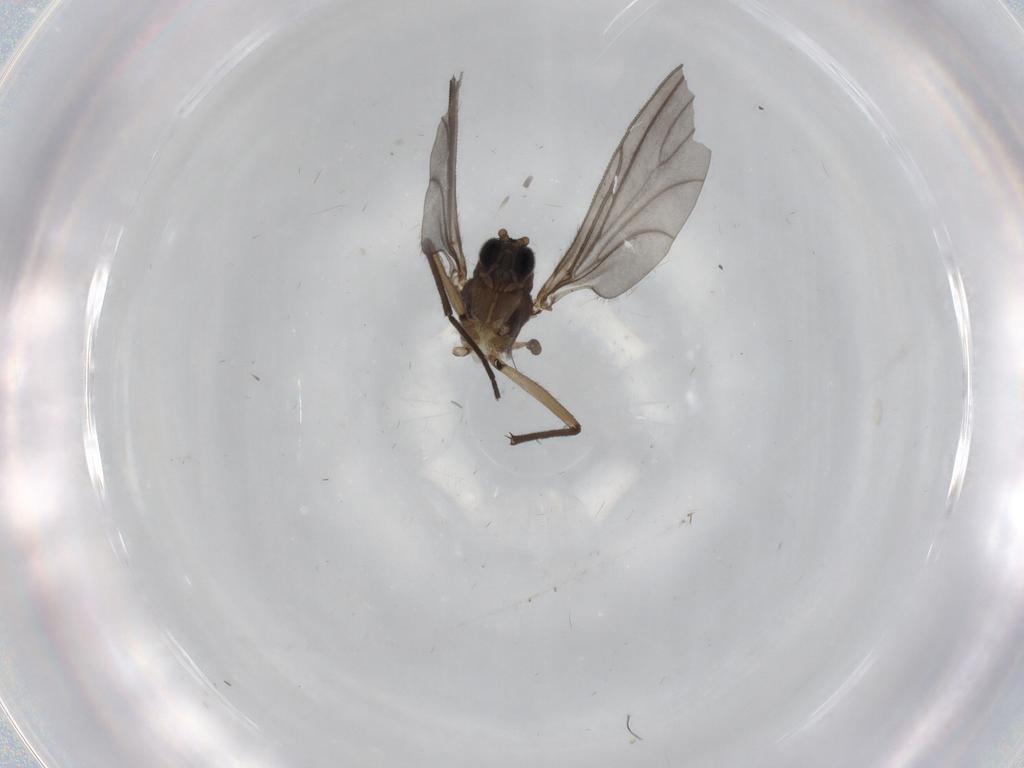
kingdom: Animalia
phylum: Arthropoda
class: Insecta
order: Diptera
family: Sciaridae
